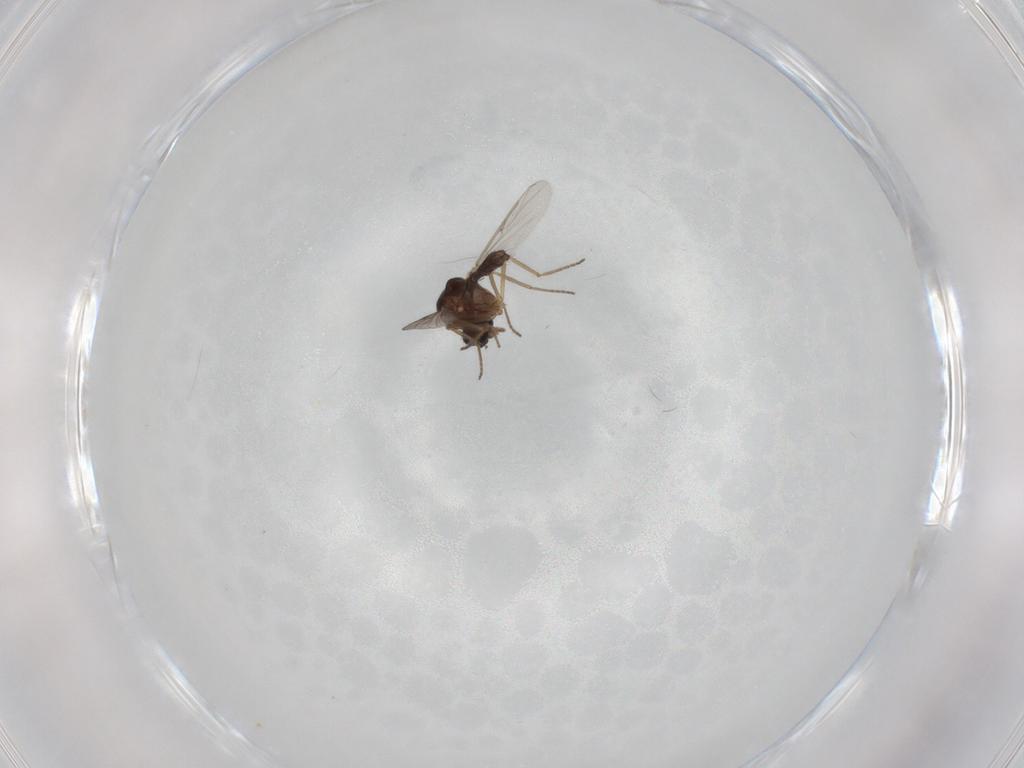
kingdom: Animalia
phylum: Arthropoda
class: Insecta
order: Diptera
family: Ceratopogonidae
